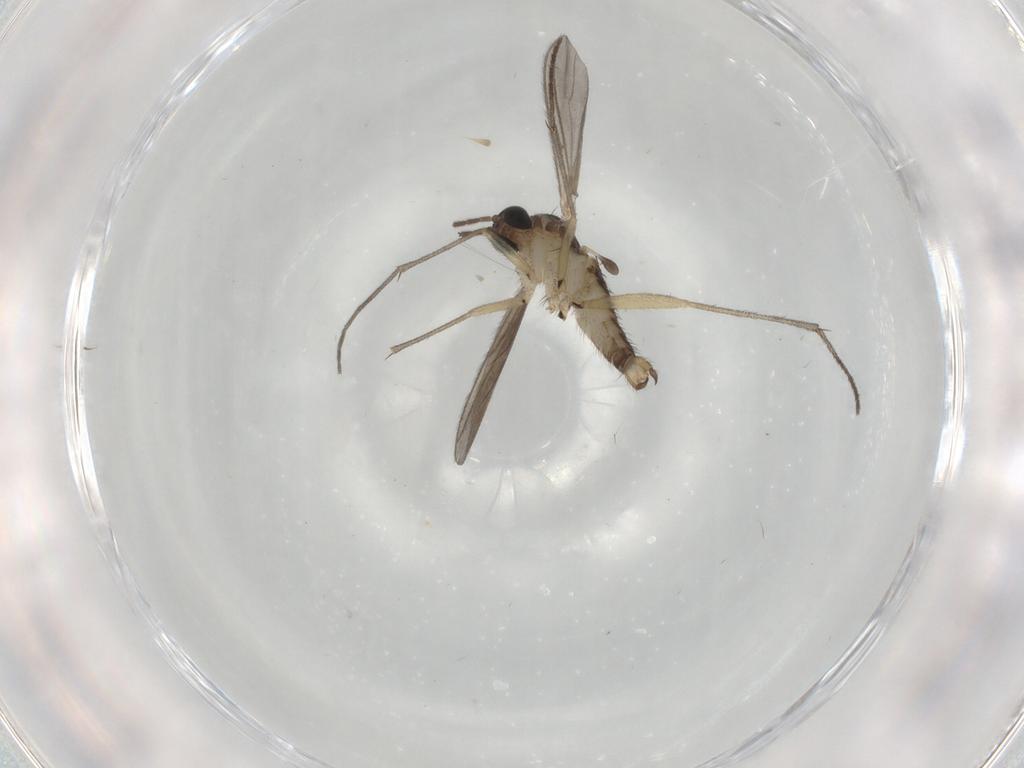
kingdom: Animalia
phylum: Arthropoda
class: Insecta
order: Diptera
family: Sciaridae
